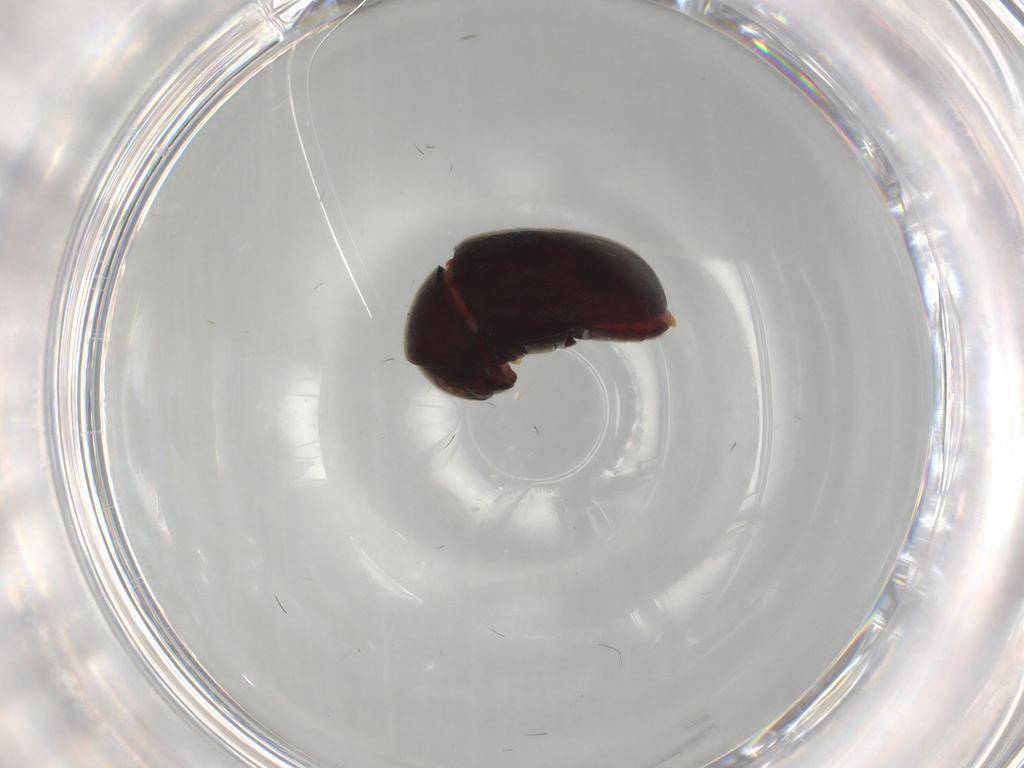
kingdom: Animalia
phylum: Arthropoda
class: Insecta
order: Coleoptera
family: Ptinidae
